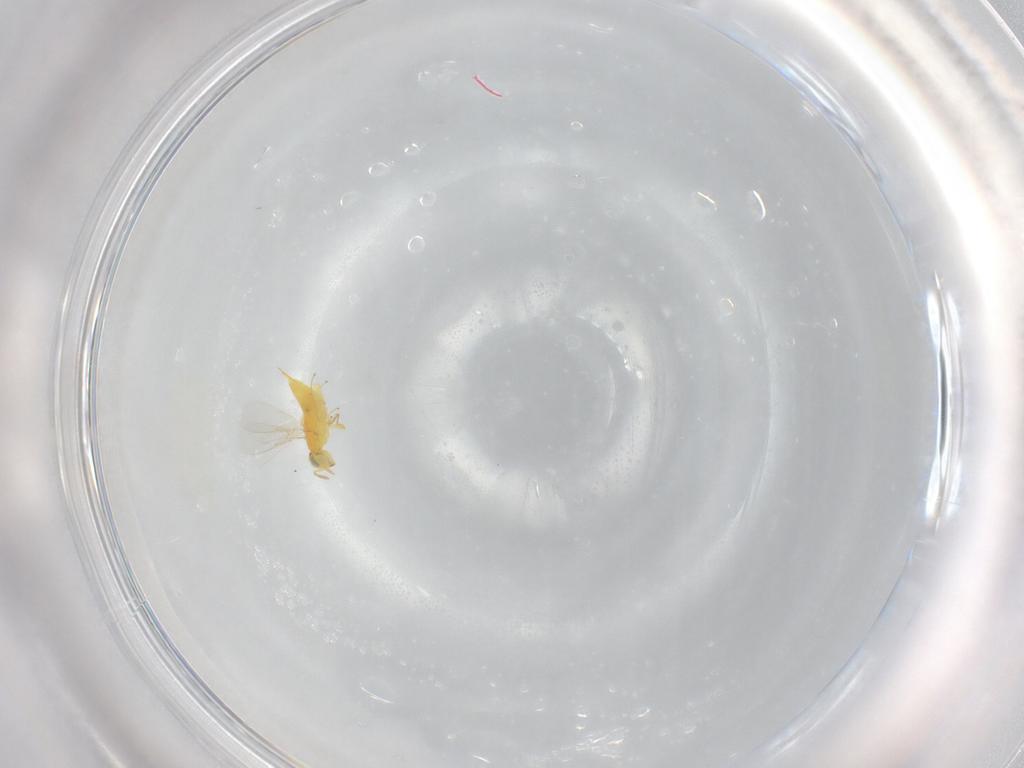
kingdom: Animalia
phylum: Arthropoda
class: Insecta
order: Hymenoptera
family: Aphelinidae
